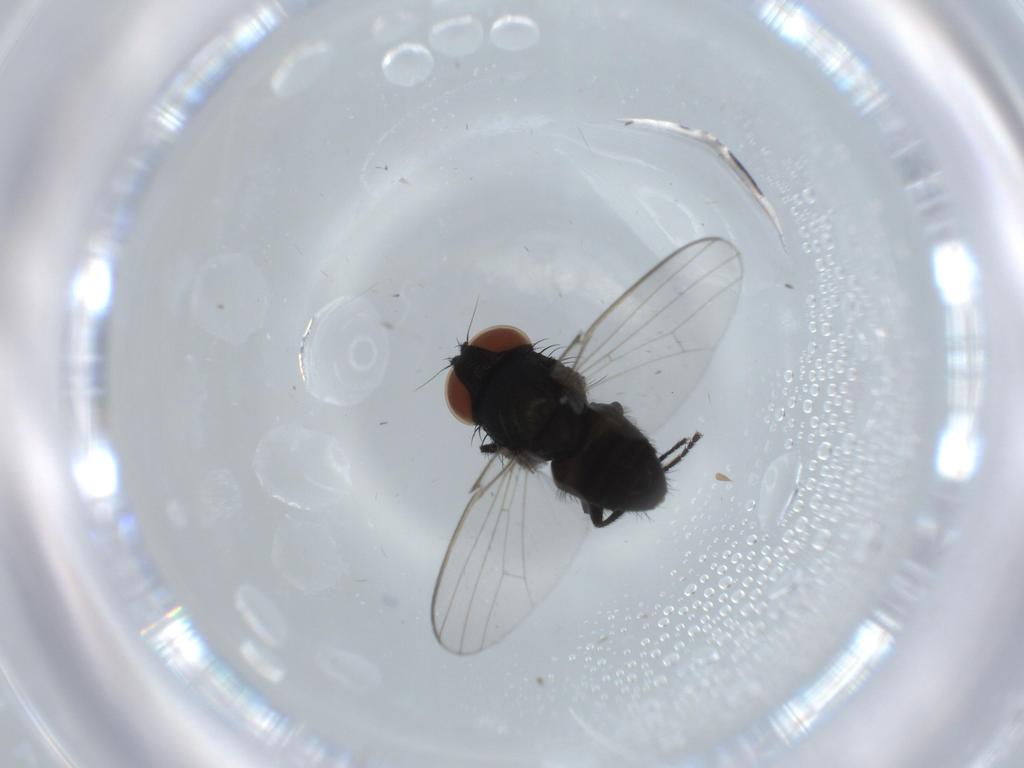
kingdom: Animalia
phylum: Arthropoda
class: Insecta
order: Diptera
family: Milichiidae
